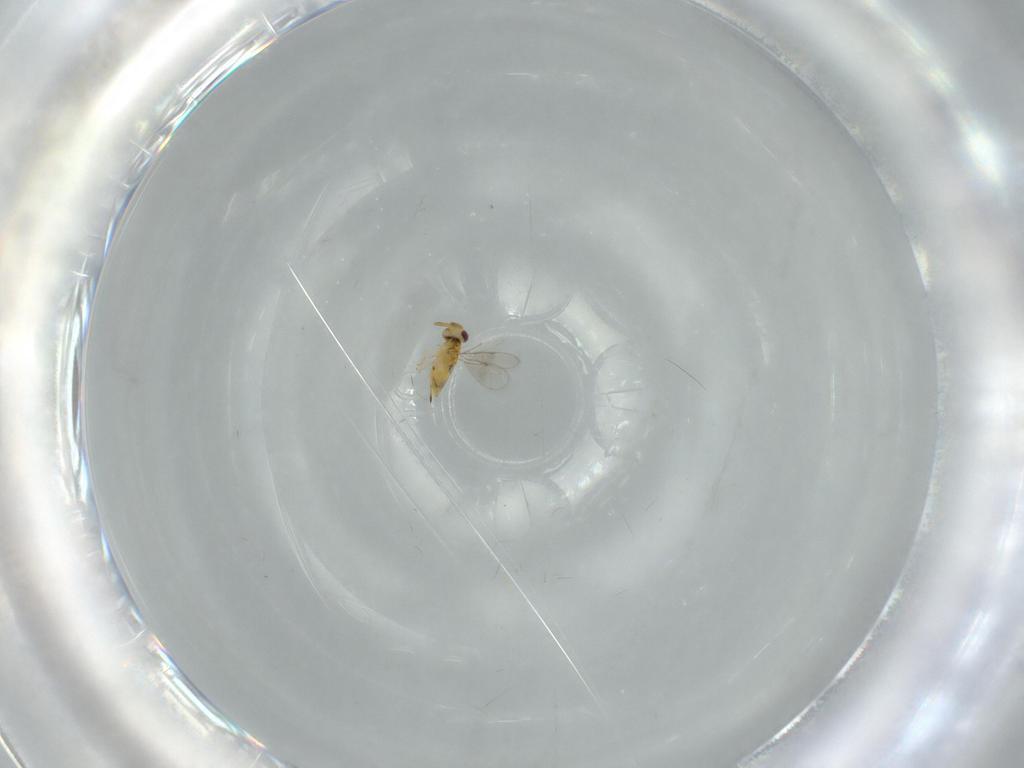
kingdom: Animalia
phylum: Arthropoda
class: Insecta
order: Hymenoptera
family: Aphelinidae
